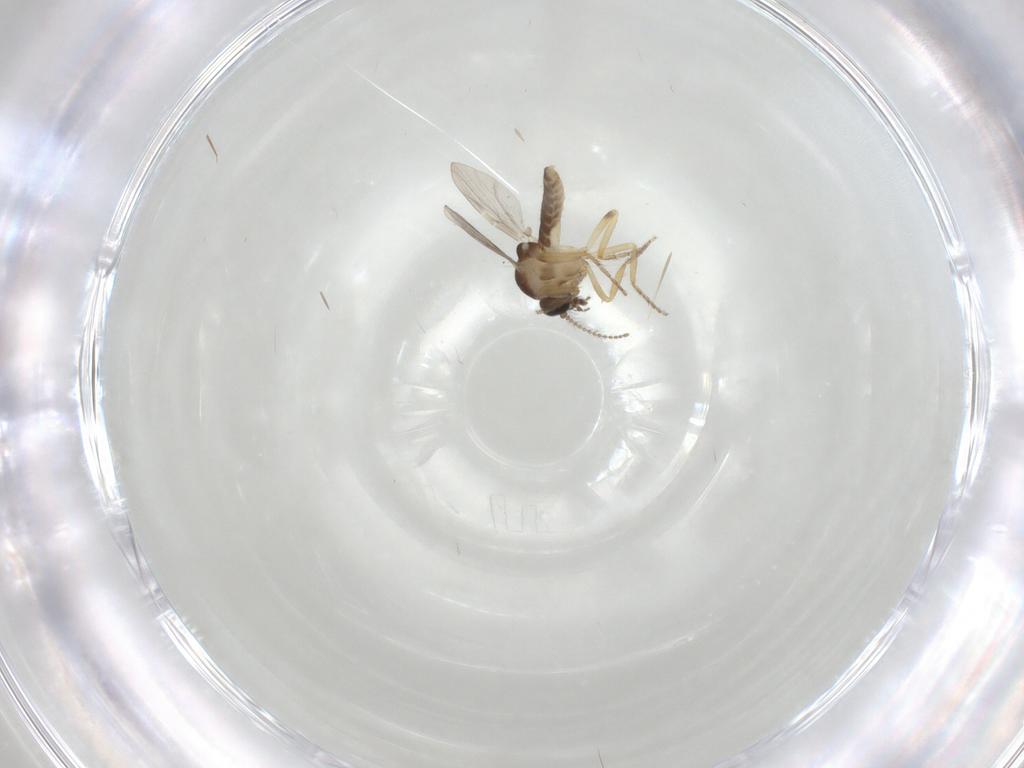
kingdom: Animalia
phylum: Arthropoda
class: Insecta
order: Diptera
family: Ceratopogonidae
